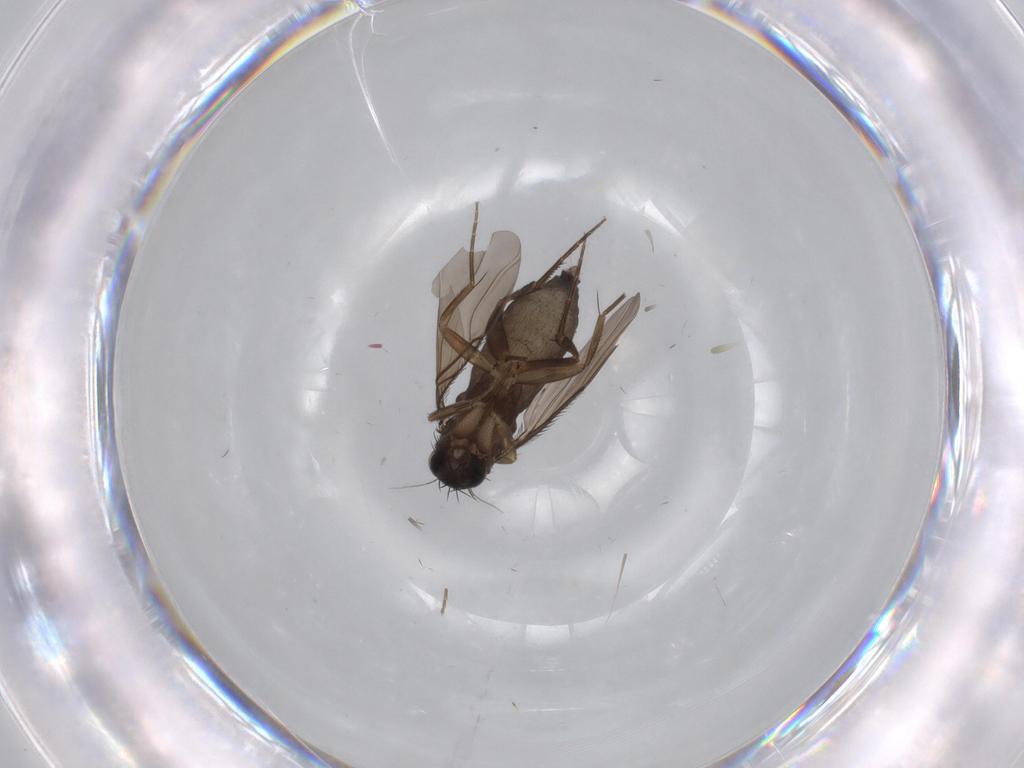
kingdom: Animalia
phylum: Arthropoda
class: Insecta
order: Diptera
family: Phoridae
